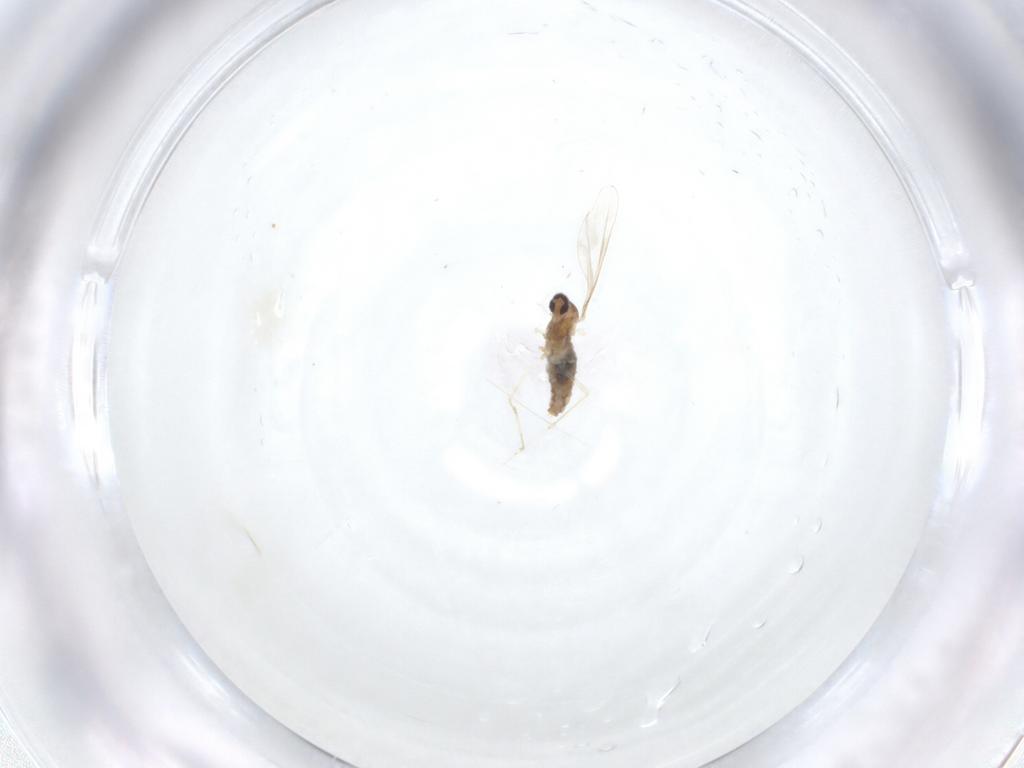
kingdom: Animalia
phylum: Arthropoda
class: Insecta
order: Diptera
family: Cecidomyiidae
